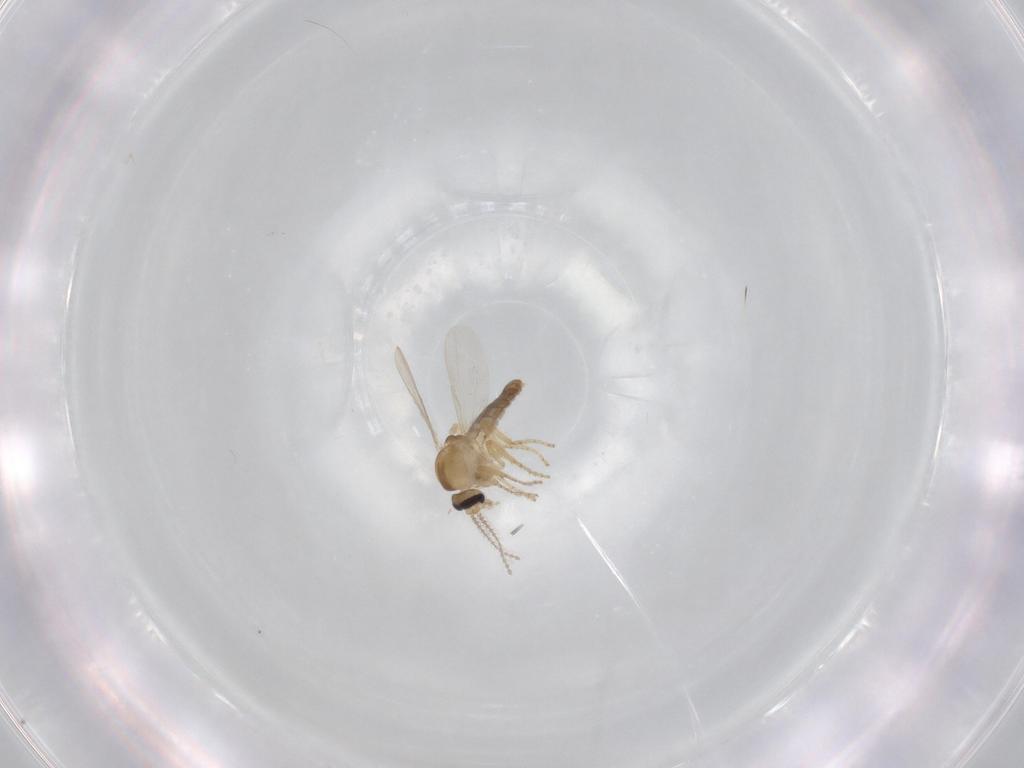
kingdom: Animalia
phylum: Arthropoda
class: Insecta
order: Diptera
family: Ceratopogonidae
